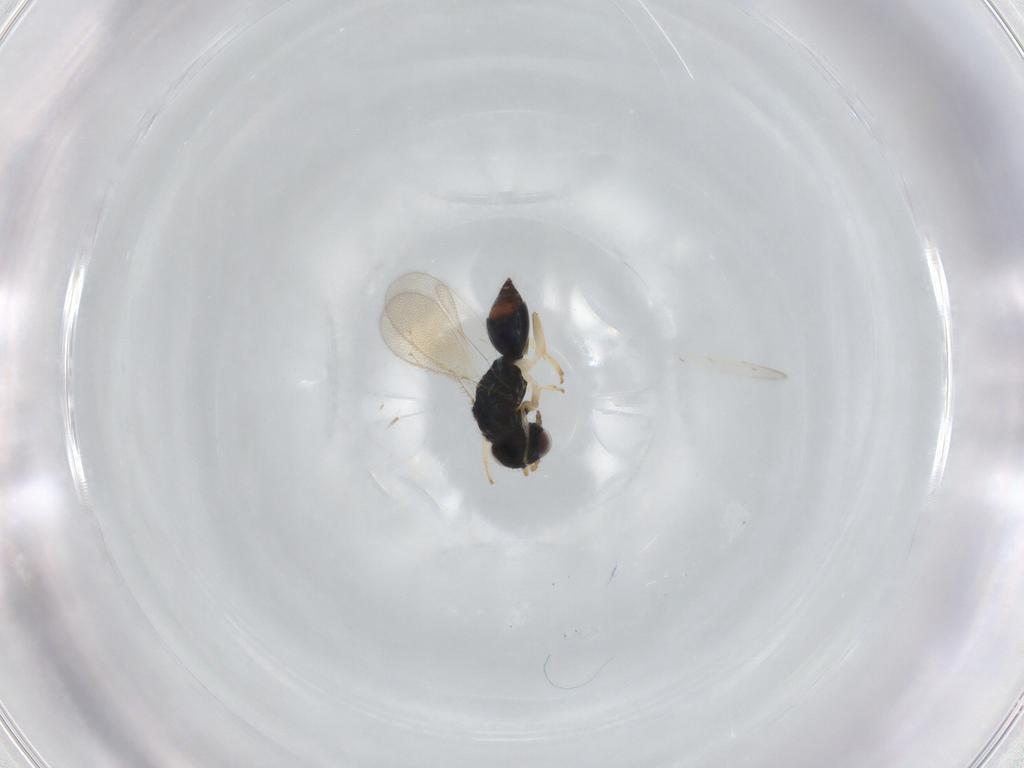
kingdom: Animalia
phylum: Arthropoda
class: Insecta
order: Hymenoptera
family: Eulophidae
